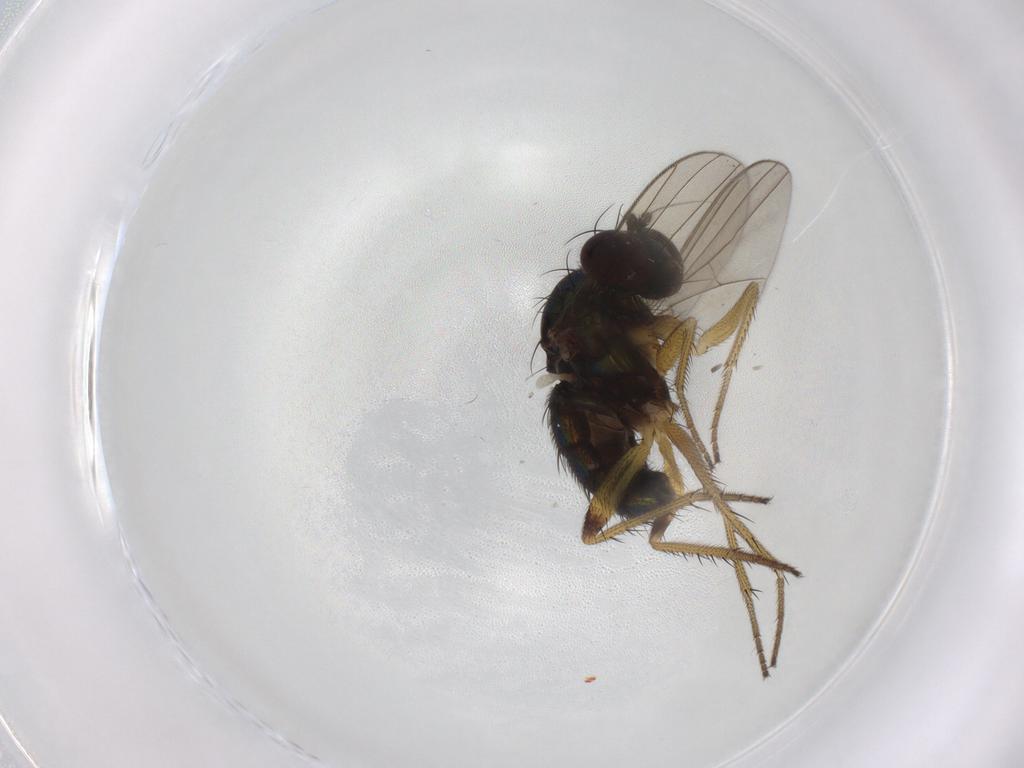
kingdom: Animalia
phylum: Arthropoda
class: Insecta
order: Diptera
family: Dolichopodidae
